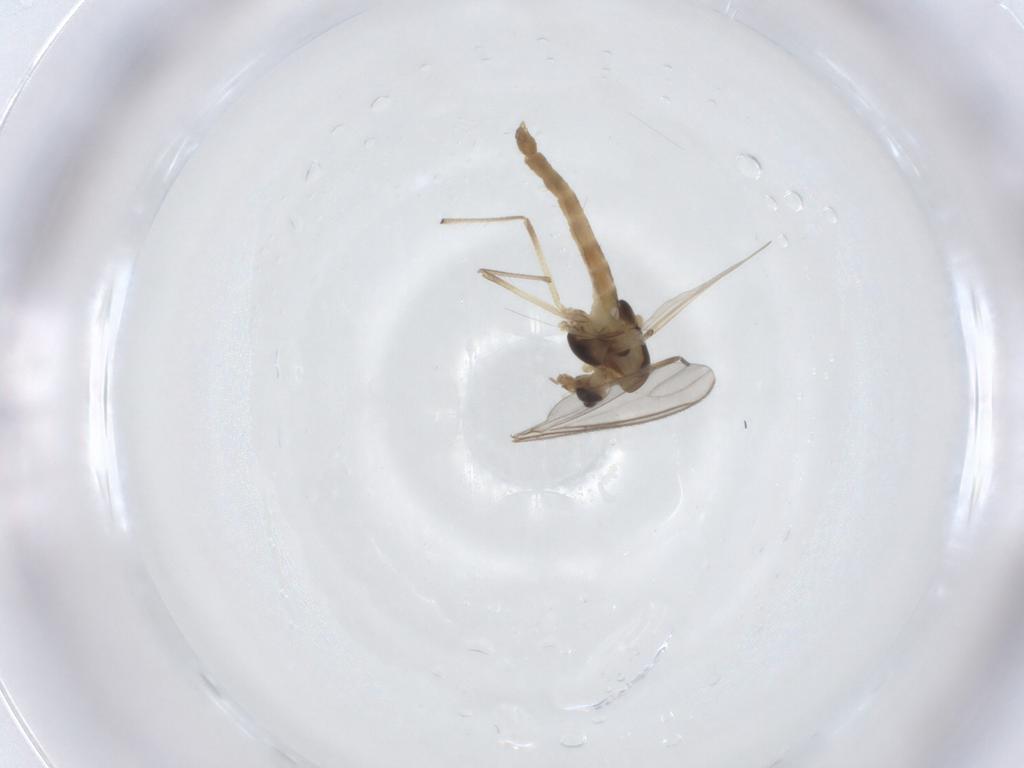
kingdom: Animalia
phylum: Arthropoda
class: Insecta
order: Diptera
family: Chironomidae
